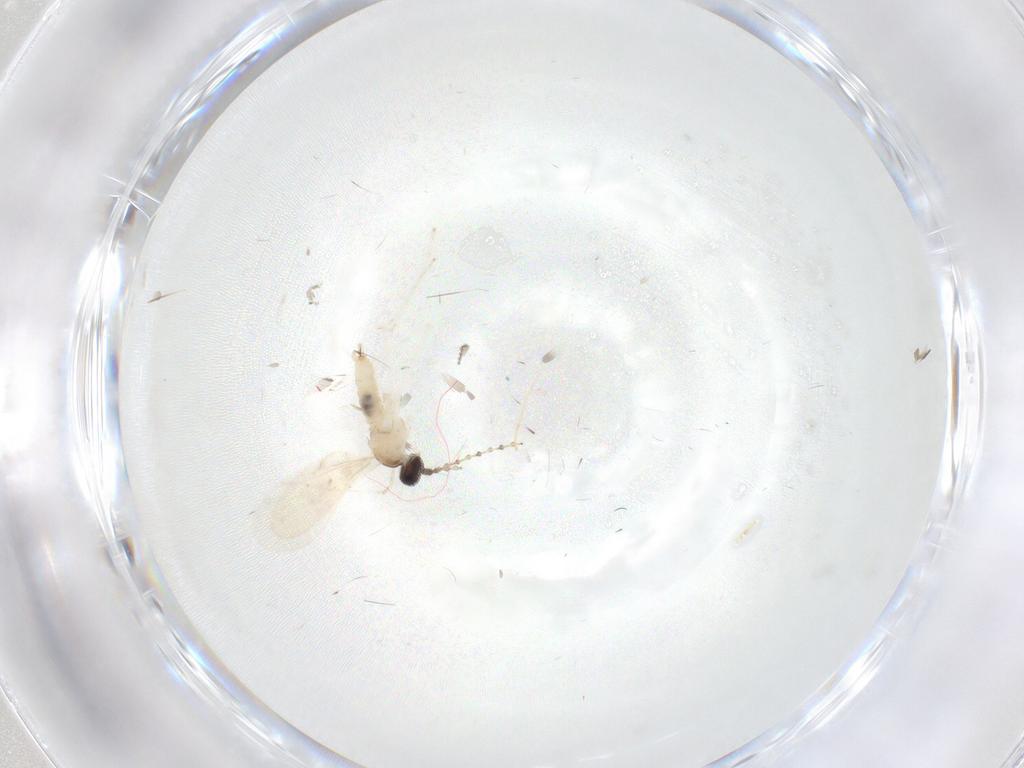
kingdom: Animalia
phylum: Arthropoda
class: Insecta
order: Diptera
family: Cecidomyiidae
